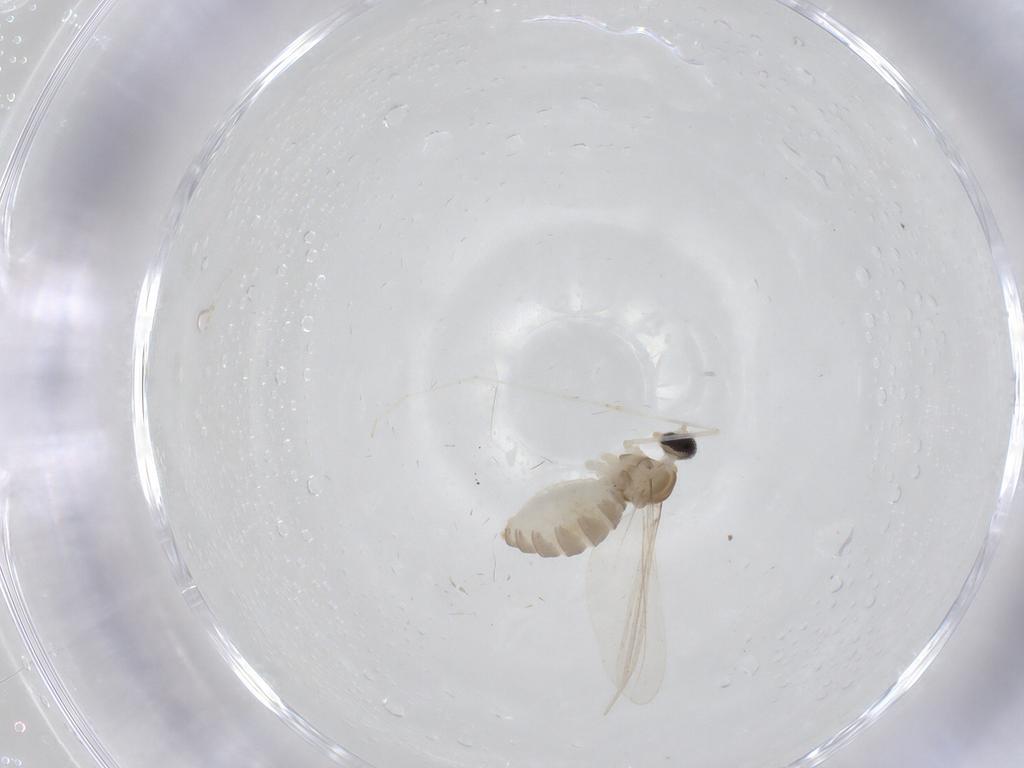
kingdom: Animalia
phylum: Arthropoda
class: Insecta
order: Diptera
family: Cecidomyiidae
